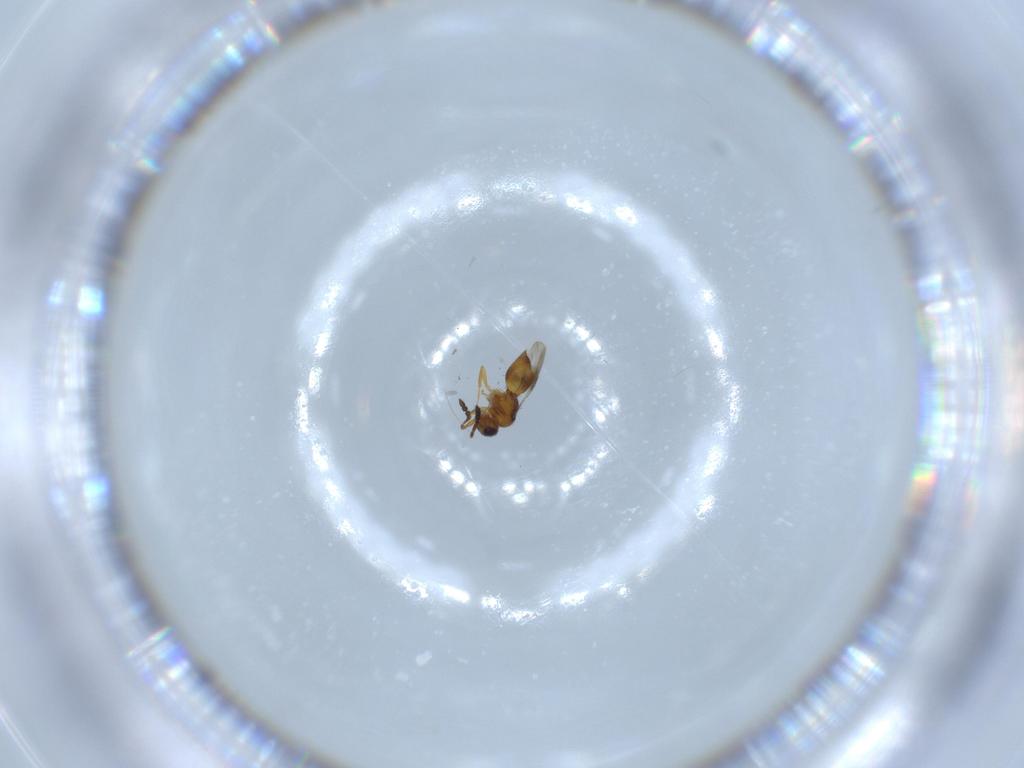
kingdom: Animalia
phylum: Arthropoda
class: Insecta
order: Hymenoptera
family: Ceraphronidae
